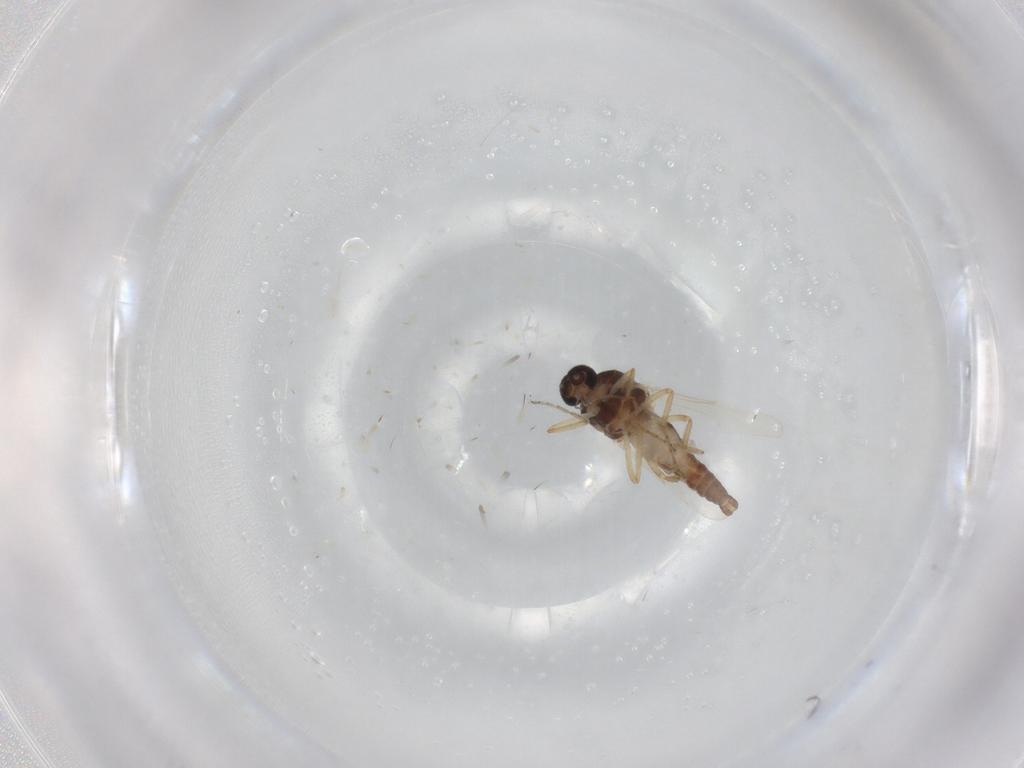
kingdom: Animalia
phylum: Arthropoda
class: Insecta
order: Diptera
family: Ceratopogonidae
